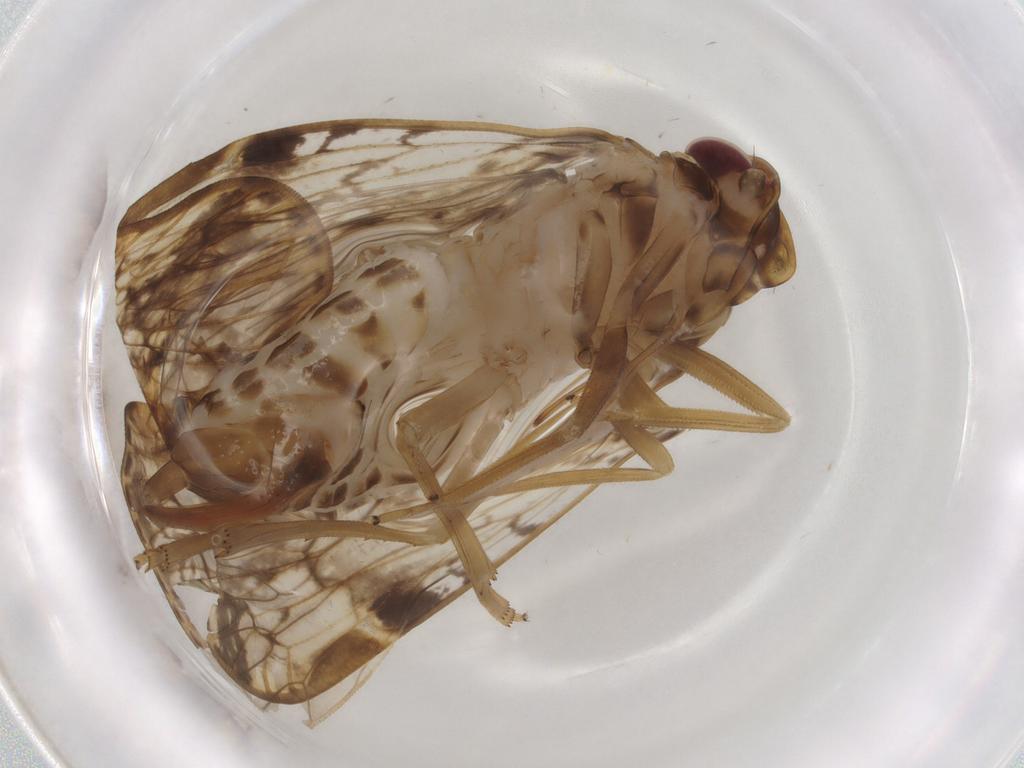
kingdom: Animalia
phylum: Arthropoda
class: Insecta
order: Hemiptera
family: Cixiidae
